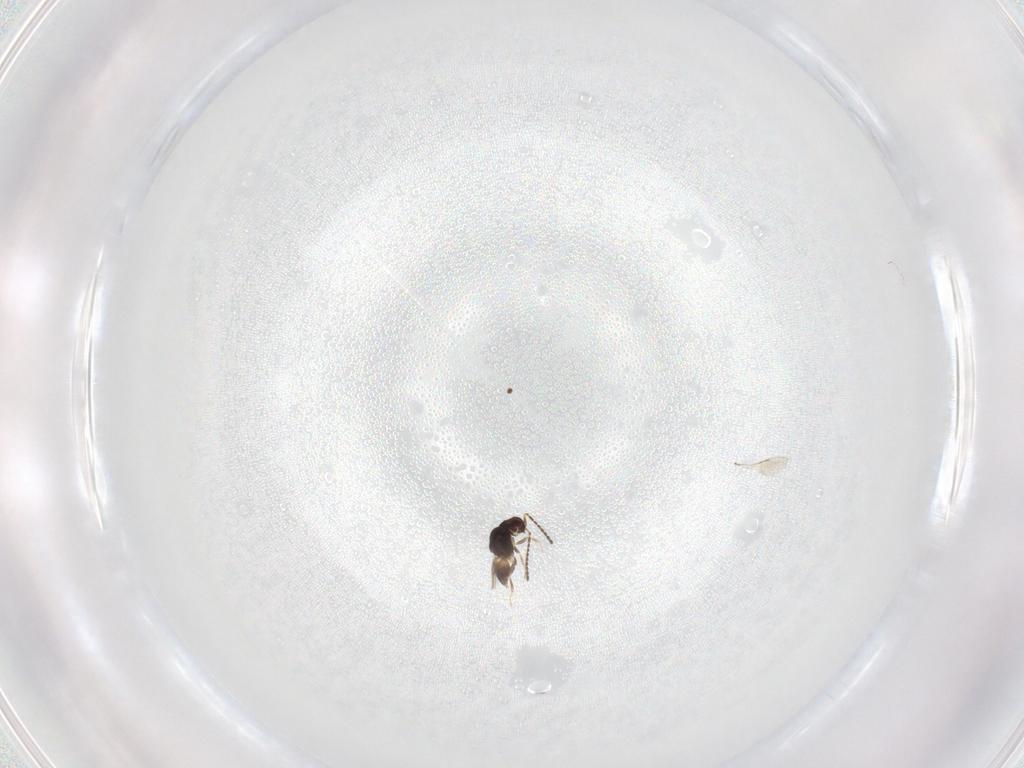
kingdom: Animalia
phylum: Arthropoda
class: Insecta
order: Hymenoptera
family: Ceraphronidae
